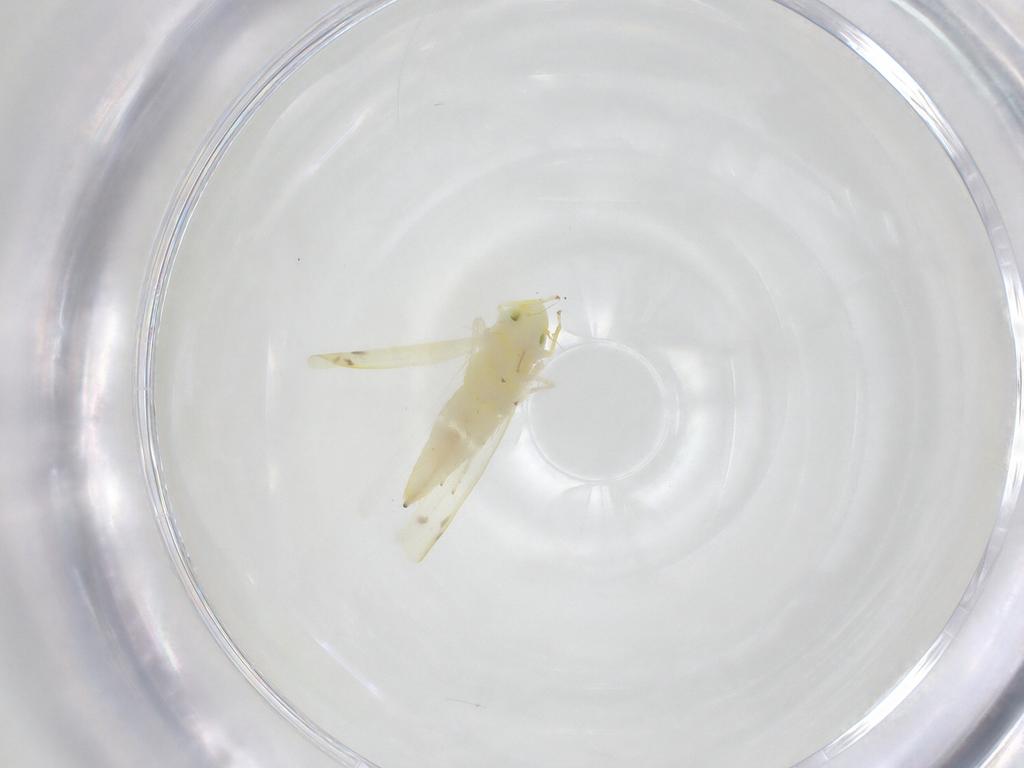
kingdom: Animalia
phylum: Arthropoda
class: Insecta
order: Hemiptera
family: Cicadellidae
